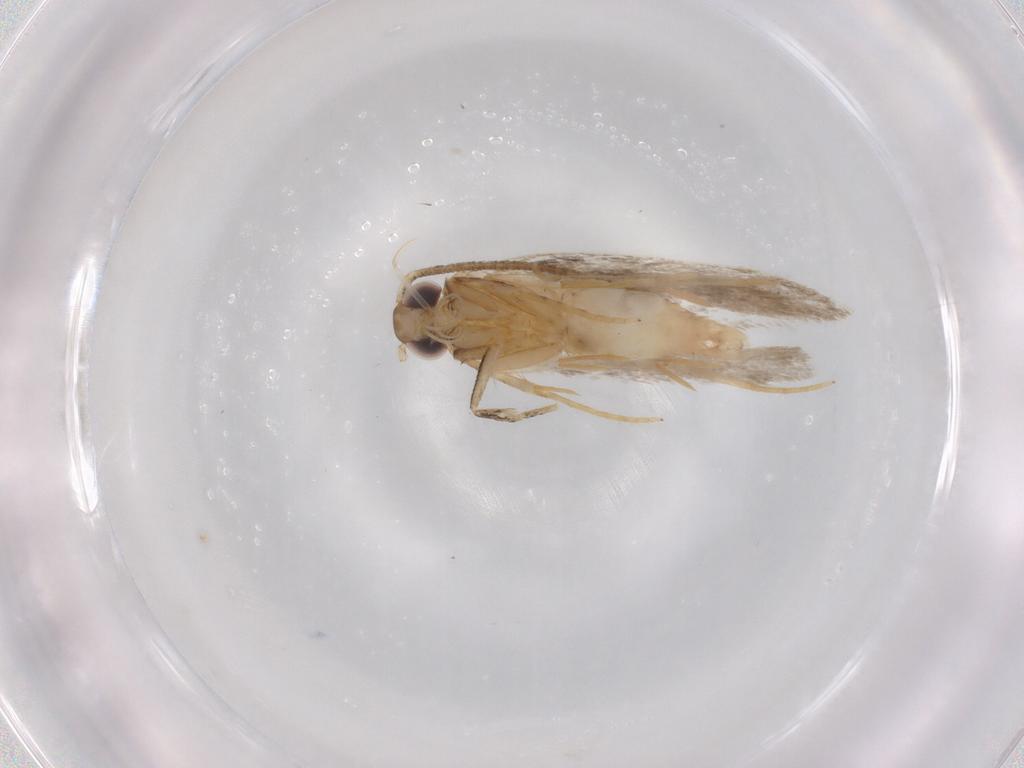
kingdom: Animalia
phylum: Arthropoda
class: Insecta
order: Lepidoptera
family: Autostichidae
